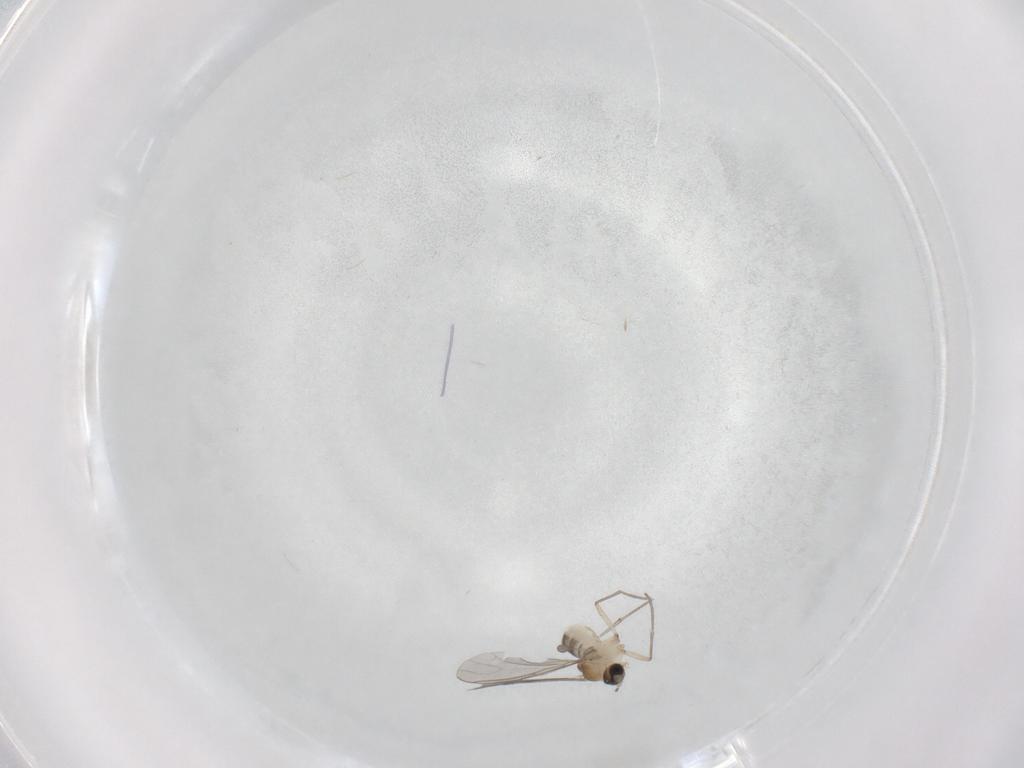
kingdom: Animalia
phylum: Arthropoda
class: Insecta
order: Diptera
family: Sciaridae
